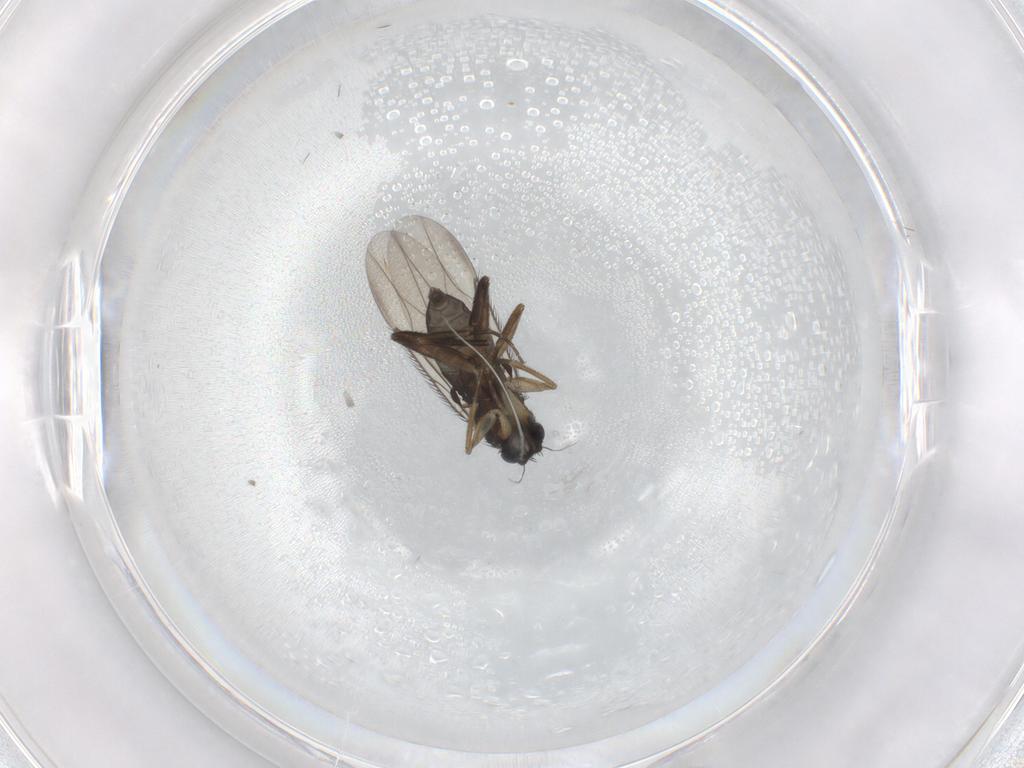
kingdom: Animalia
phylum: Arthropoda
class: Insecta
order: Diptera
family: Phoridae
